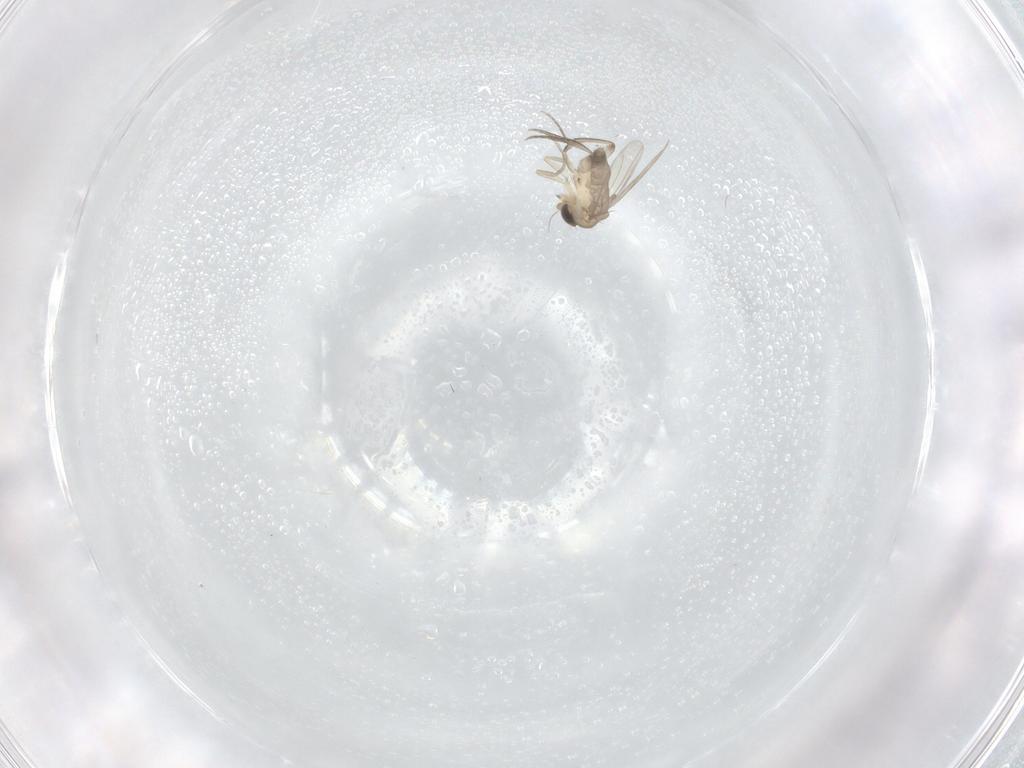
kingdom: Animalia
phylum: Arthropoda
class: Insecta
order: Diptera
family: Phoridae
